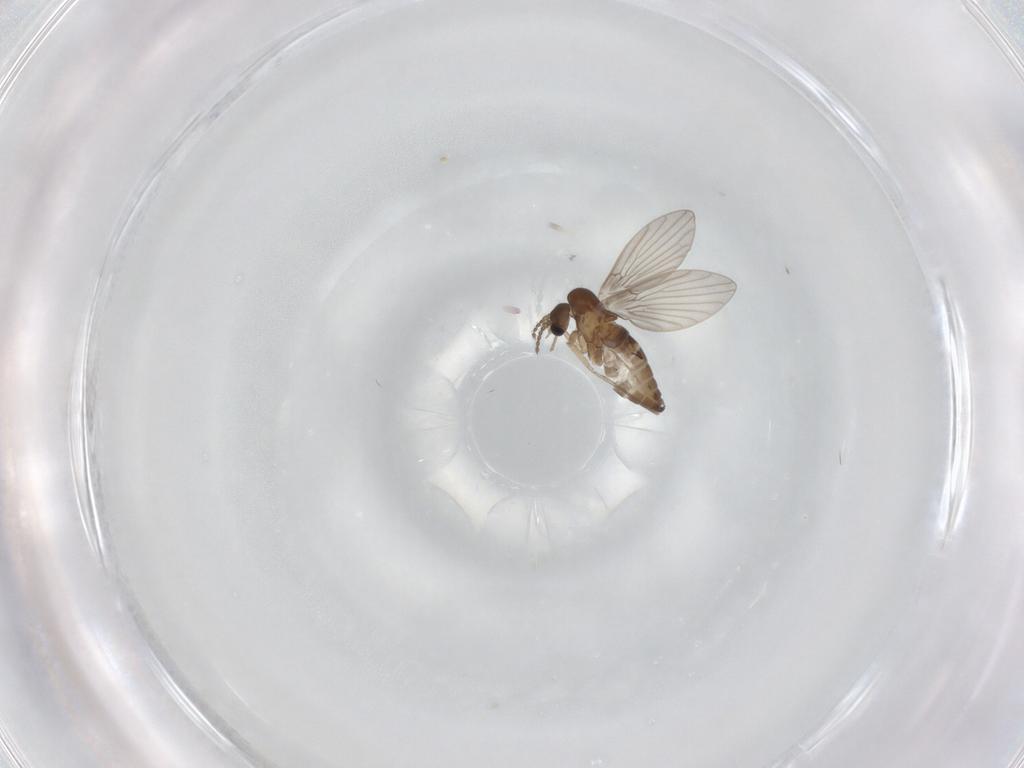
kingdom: Animalia
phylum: Arthropoda
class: Insecta
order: Diptera
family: Psychodidae
